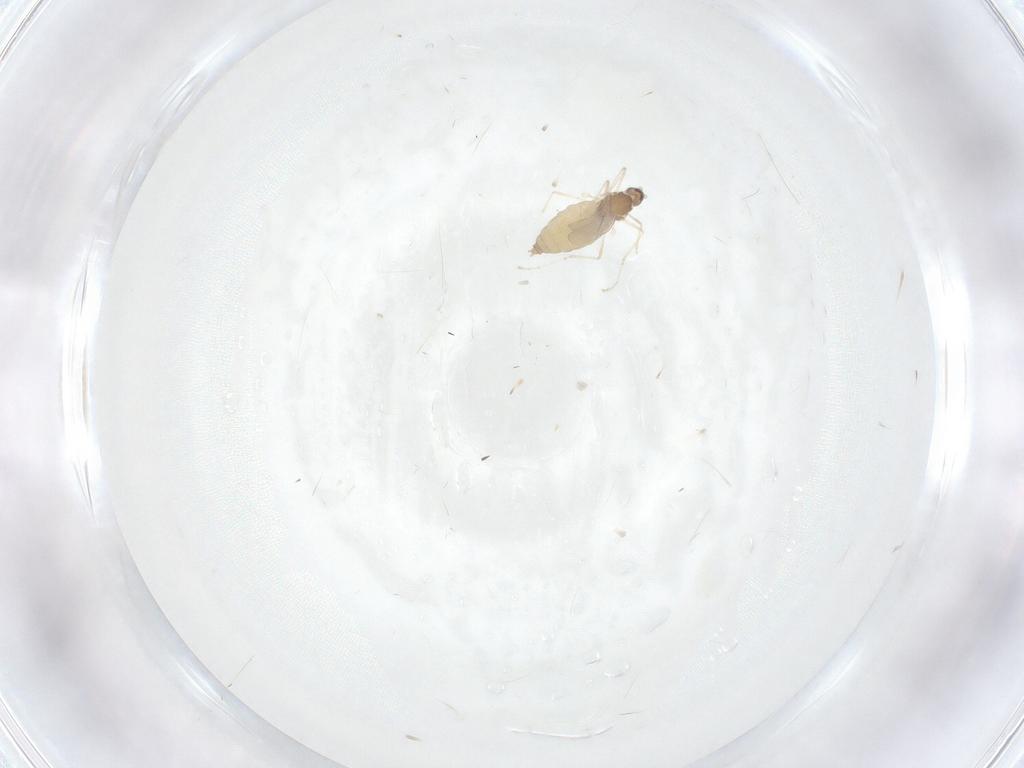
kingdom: Animalia
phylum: Arthropoda
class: Insecta
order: Diptera
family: Cecidomyiidae
